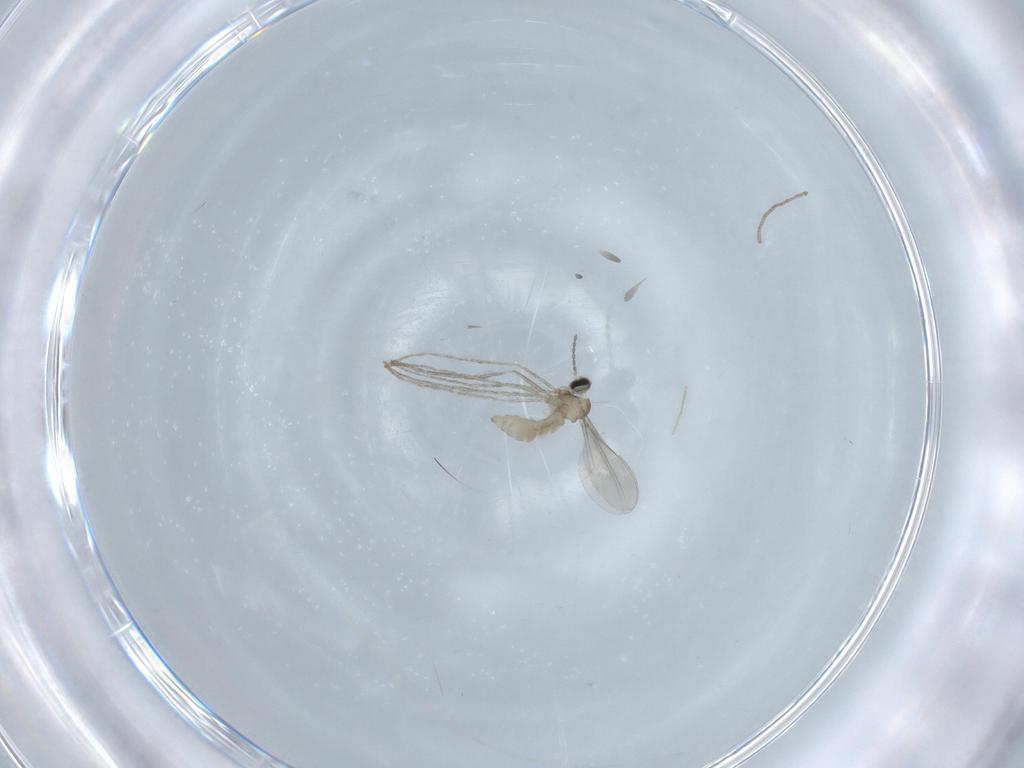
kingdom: Animalia
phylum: Arthropoda
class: Insecta
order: Diptera
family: Cecidomyiidae
